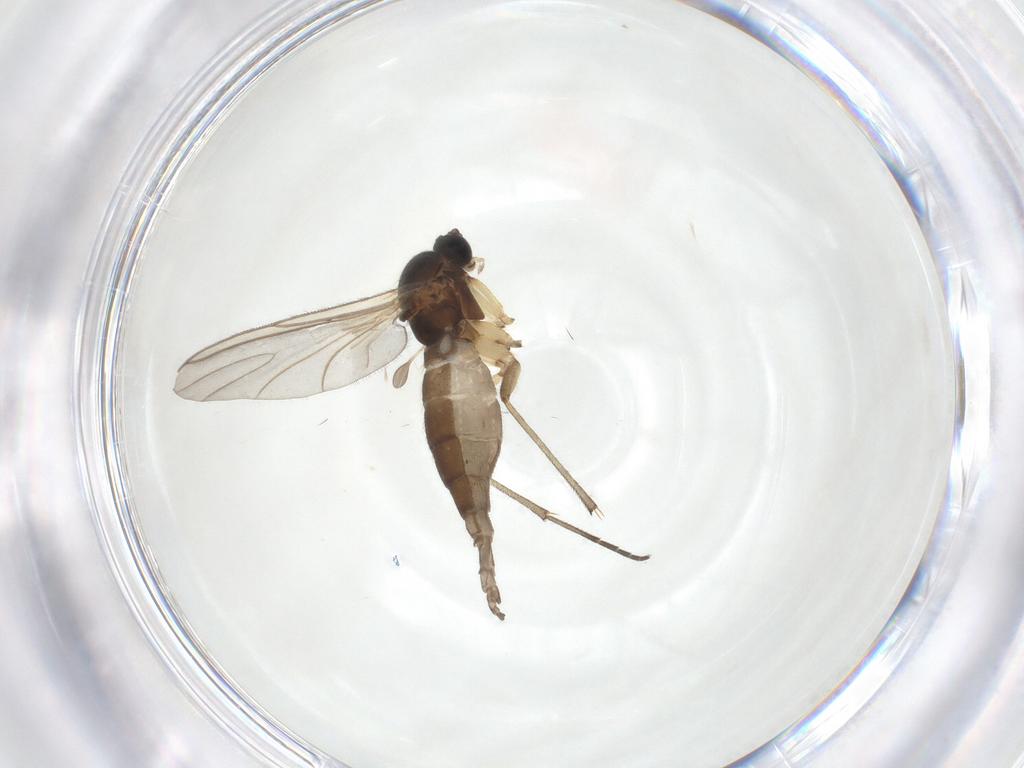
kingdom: Animalia
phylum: Arthropoda
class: Insecta
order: Diptera
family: Sciaridae
